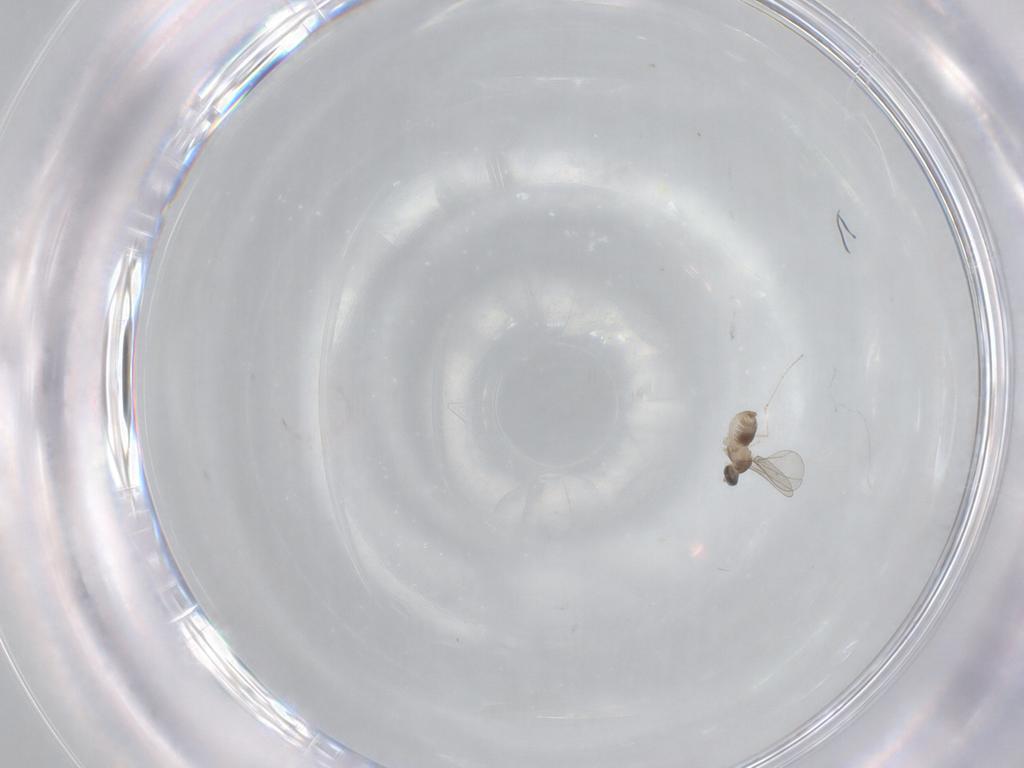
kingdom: Animalia
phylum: Arthropoda
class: Insecta
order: Diptera
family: Cecidomyiidae
